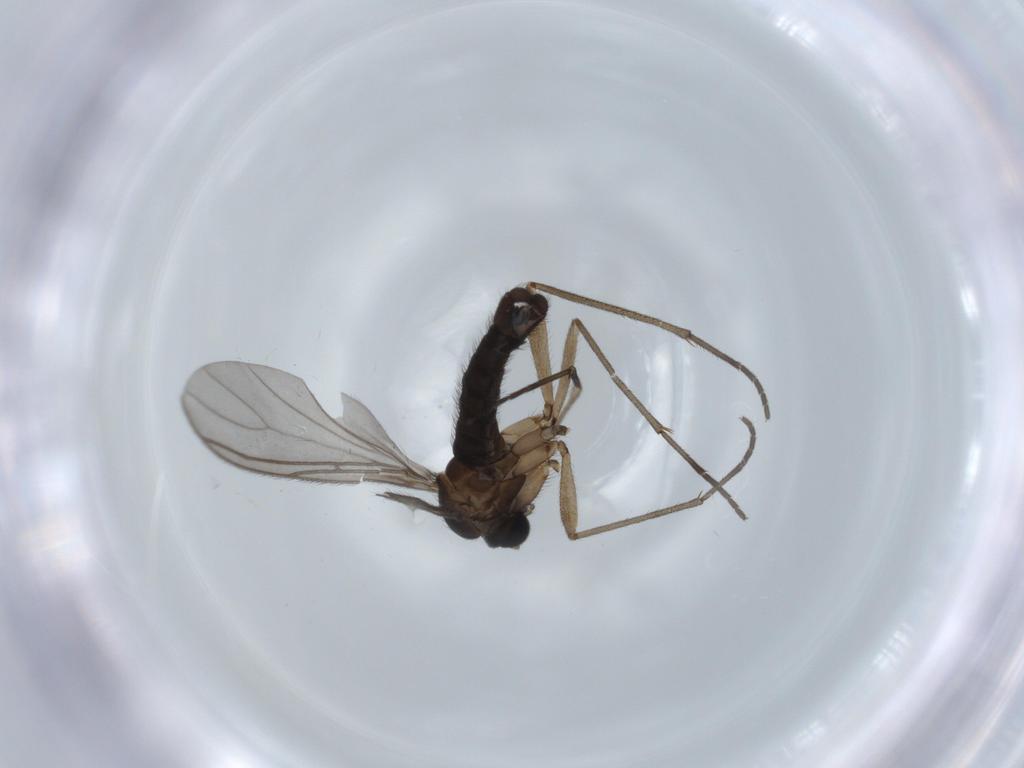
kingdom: Animalia
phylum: Arthropoda
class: Insecta
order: Diptera
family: Sciaridae
